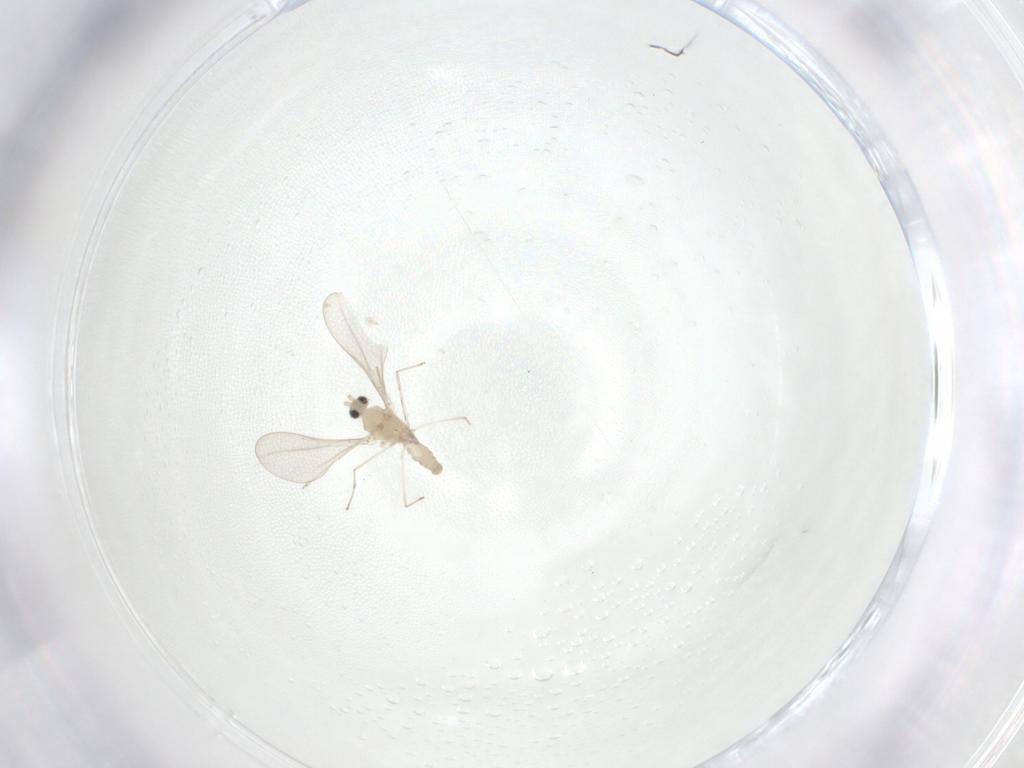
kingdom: Animalia
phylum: Arthropoda
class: Insecta
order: Diptera
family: Cecidomyiidae
